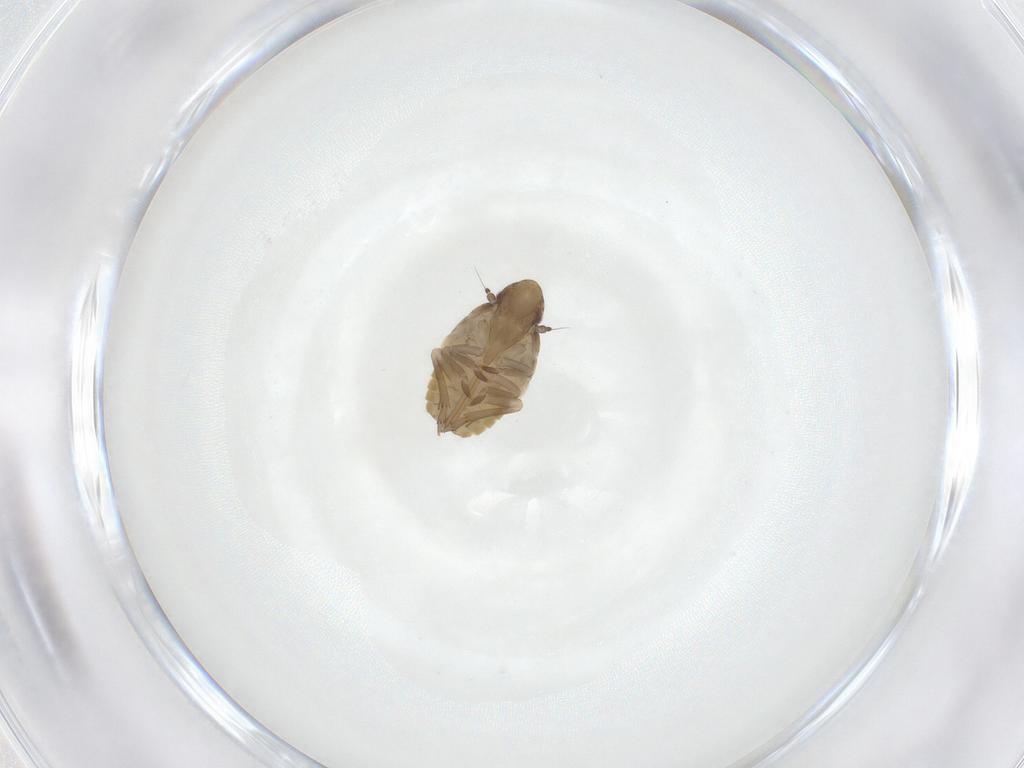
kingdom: Animalia
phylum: Arthropoda
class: Insecta
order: Hemiptera
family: Flatidae
